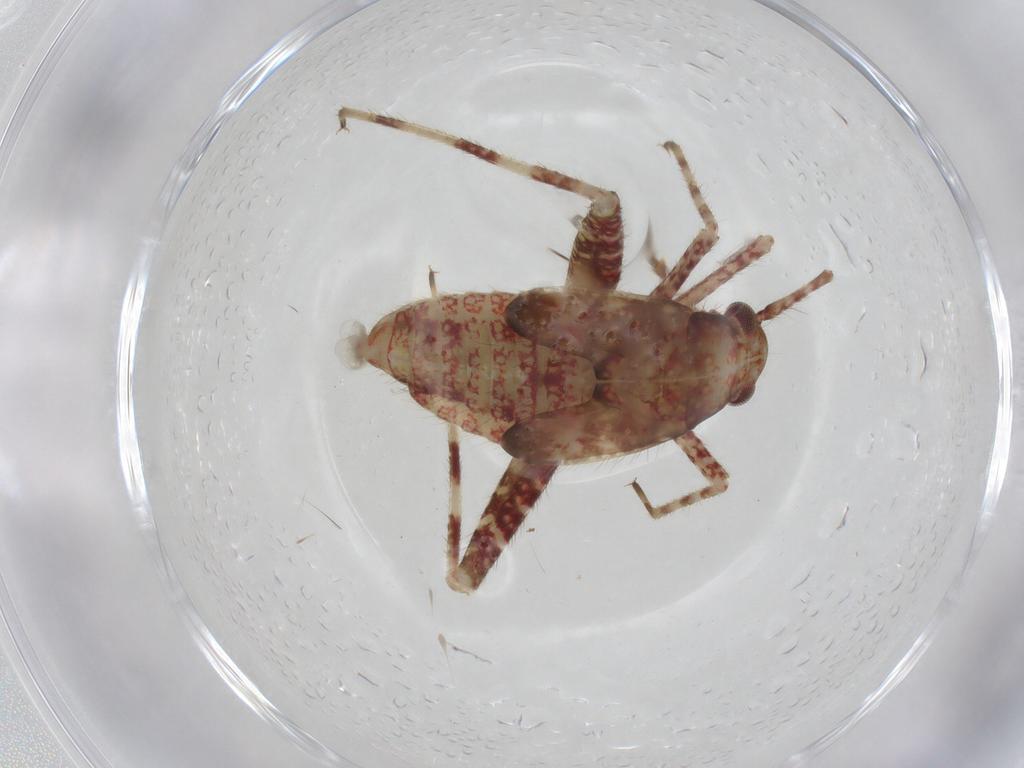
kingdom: Animalia
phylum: Arthropoda
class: Insecta
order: Hemiptera
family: Miridae
